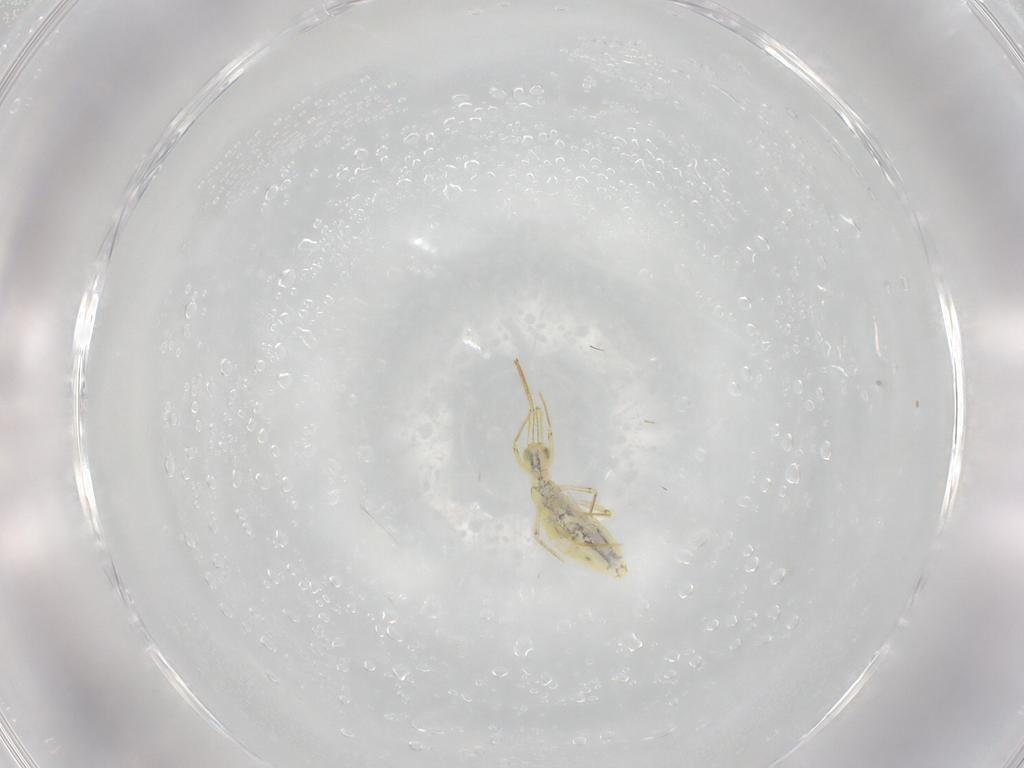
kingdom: Animalia
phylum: Arthropoda
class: Collembola
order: Entomobryomorpha
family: Entomobryidae
